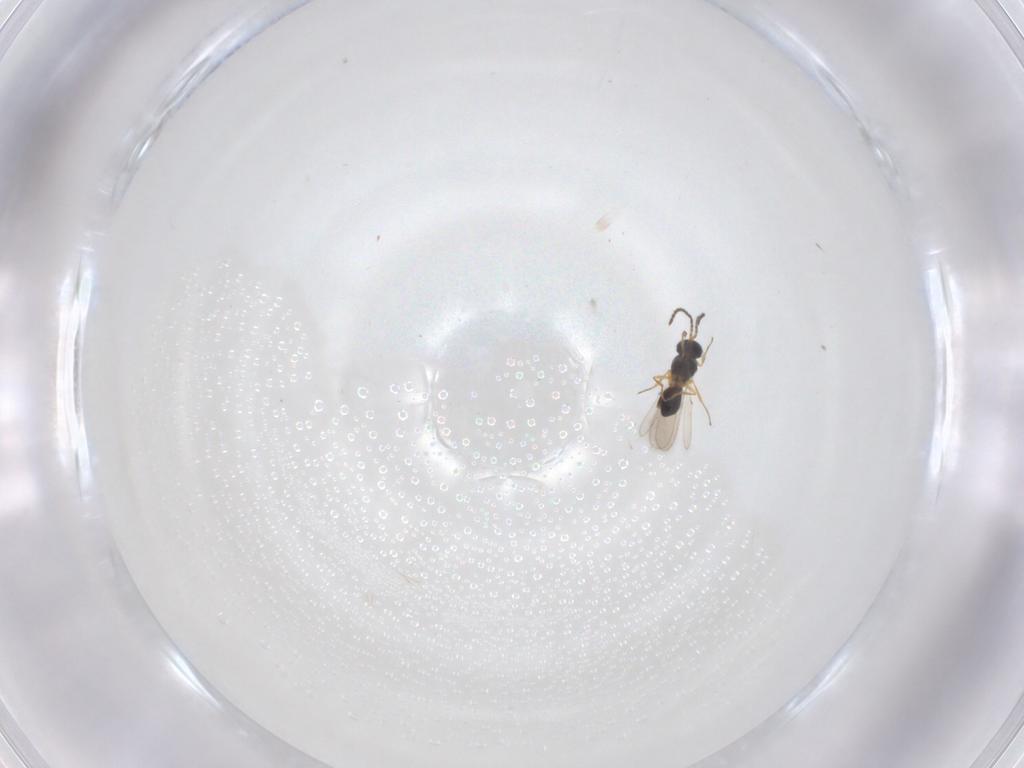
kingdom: Animalia
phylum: Arthropoda
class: Insecta
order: Hymenoptera
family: Scelionidae
